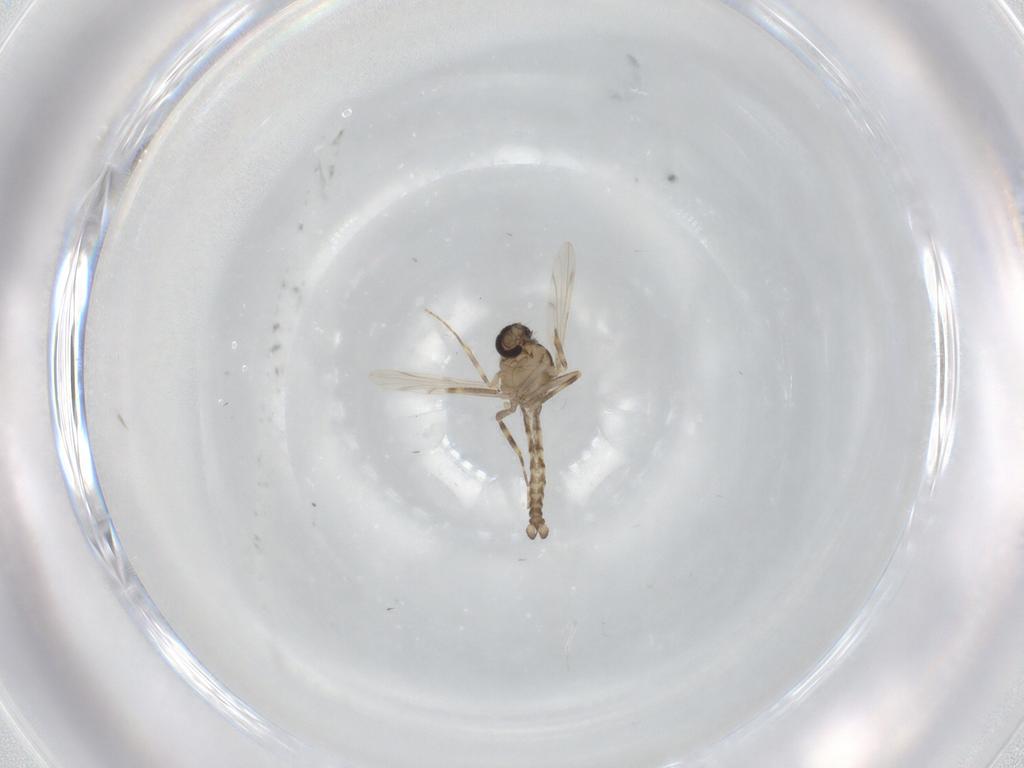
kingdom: Animalia
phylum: Arthropoda
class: Insecta
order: Diptera
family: Ceratopogonidae
